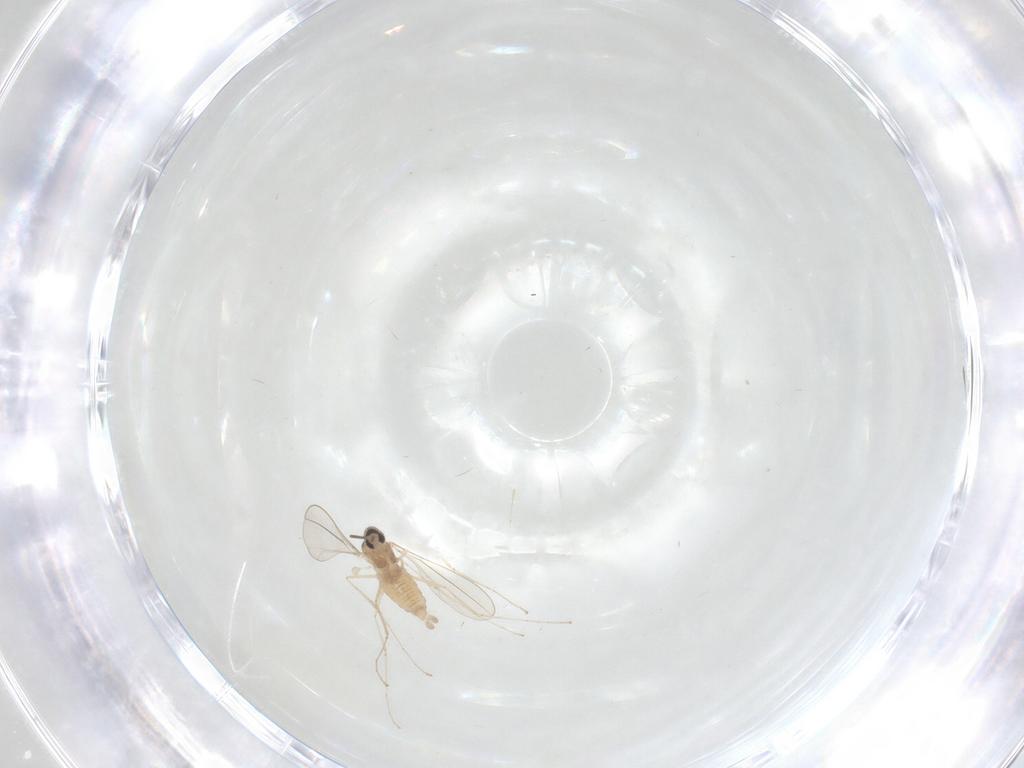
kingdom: Animalia
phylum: Arthropoda
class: Insecta
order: Diptera
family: Cecidomyiidae
